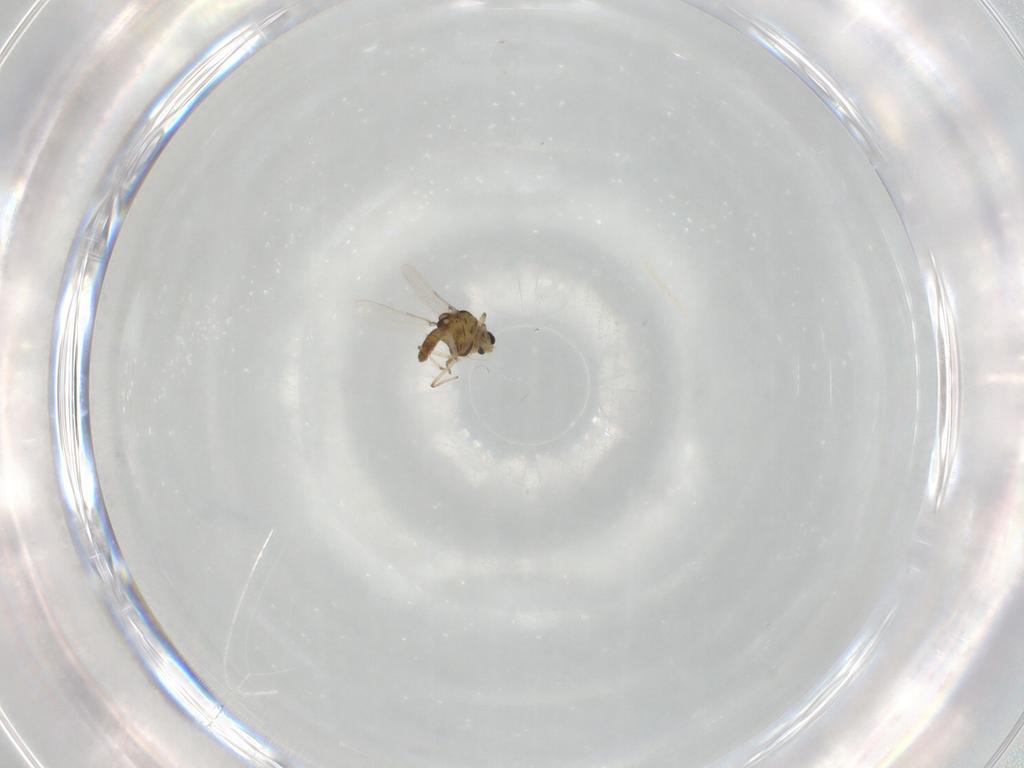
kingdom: Animalia
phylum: Arthropoda
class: Insecta
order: Diptera
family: Chironomidae
